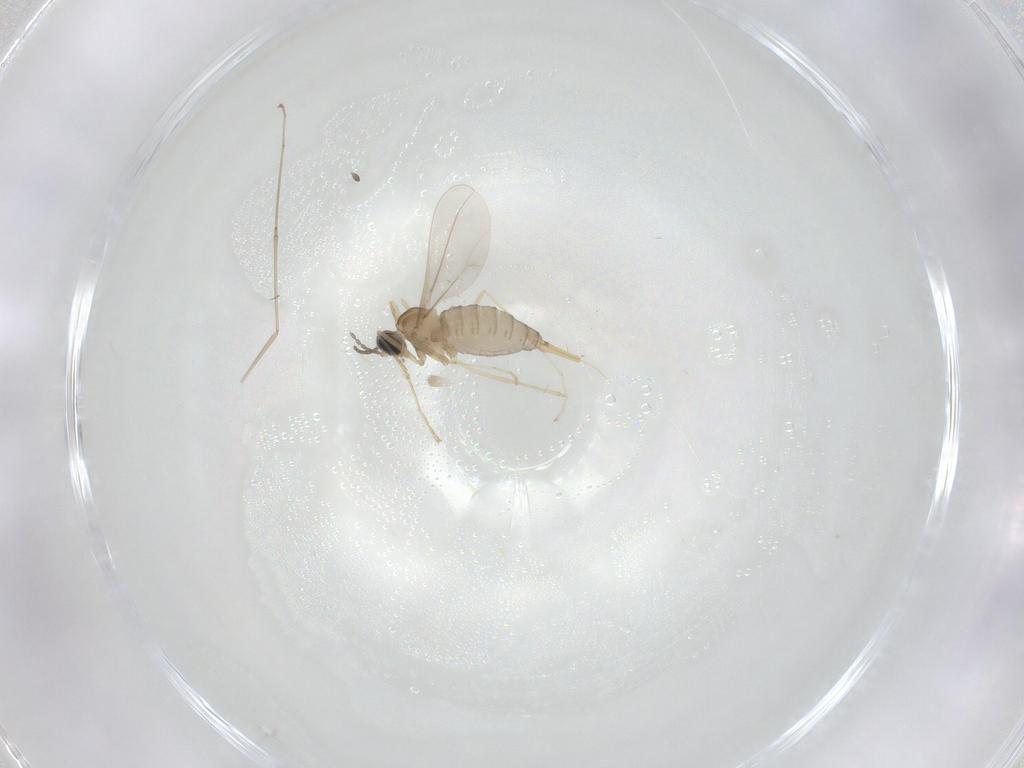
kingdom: Animalia
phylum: Arthropoda
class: Insecta
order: Diptera
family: Cecidomyiidae
